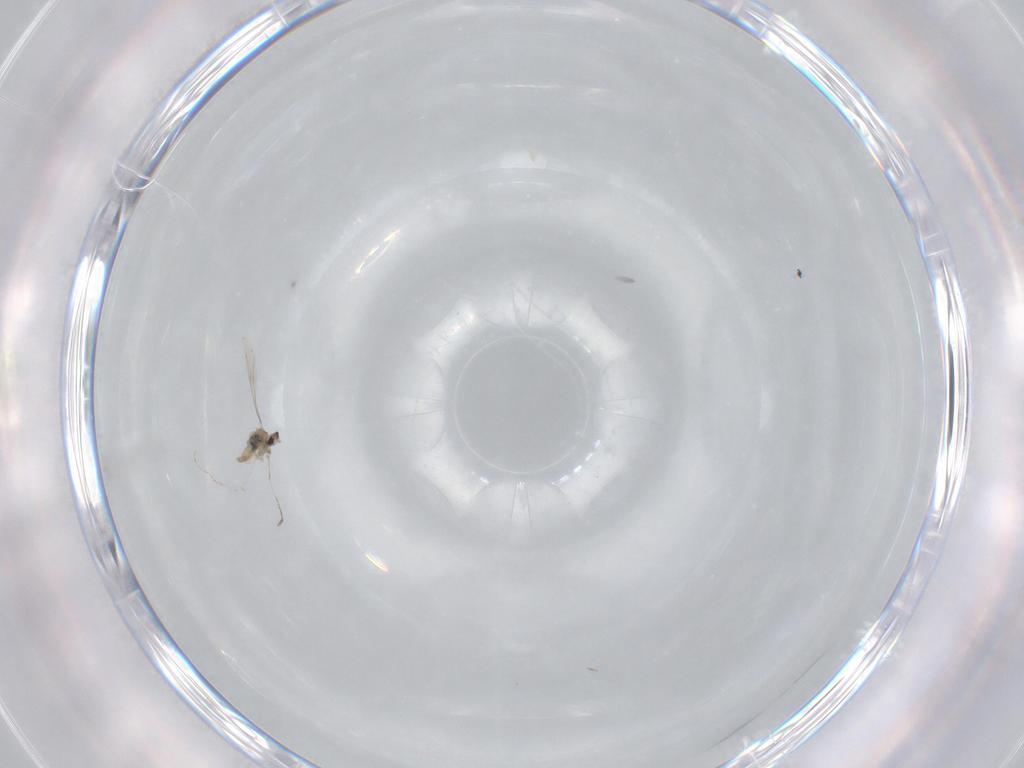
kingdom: Animalia
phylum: Arthropoda
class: Insecta
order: Diptera
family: Cecidomyiidae
